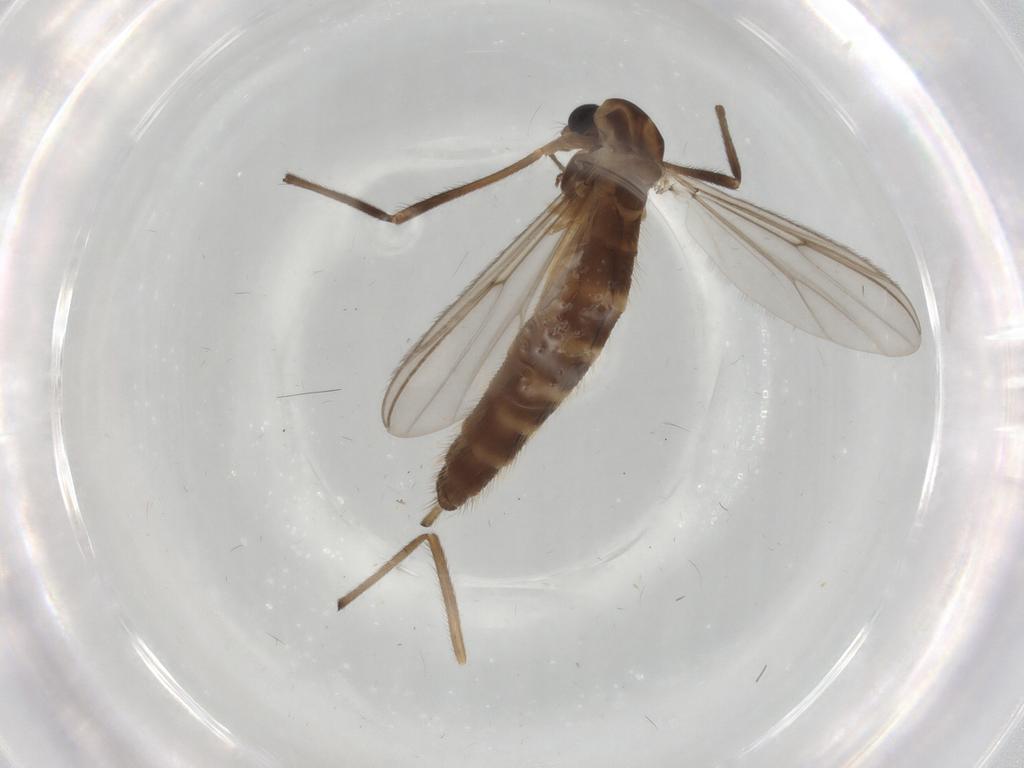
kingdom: Animalia
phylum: Arthropoda
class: Insecta
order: Diptera
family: Chironomidae
